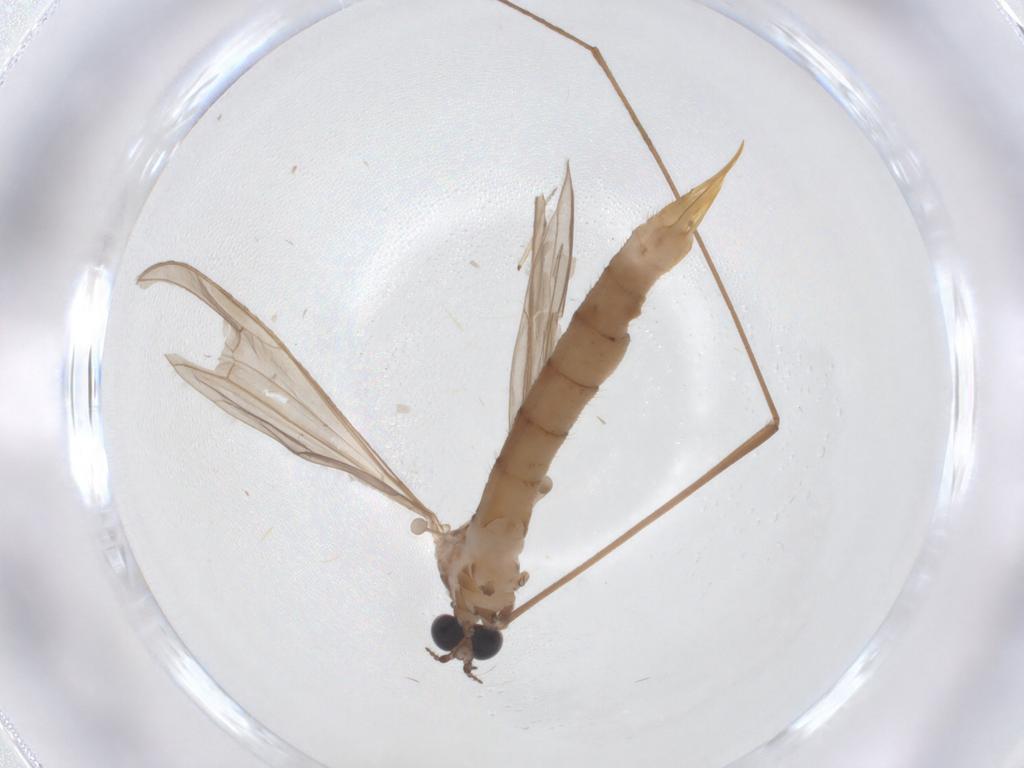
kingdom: Animalia
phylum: Arthropoda
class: Insecta
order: Diptera
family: Limoniidae
